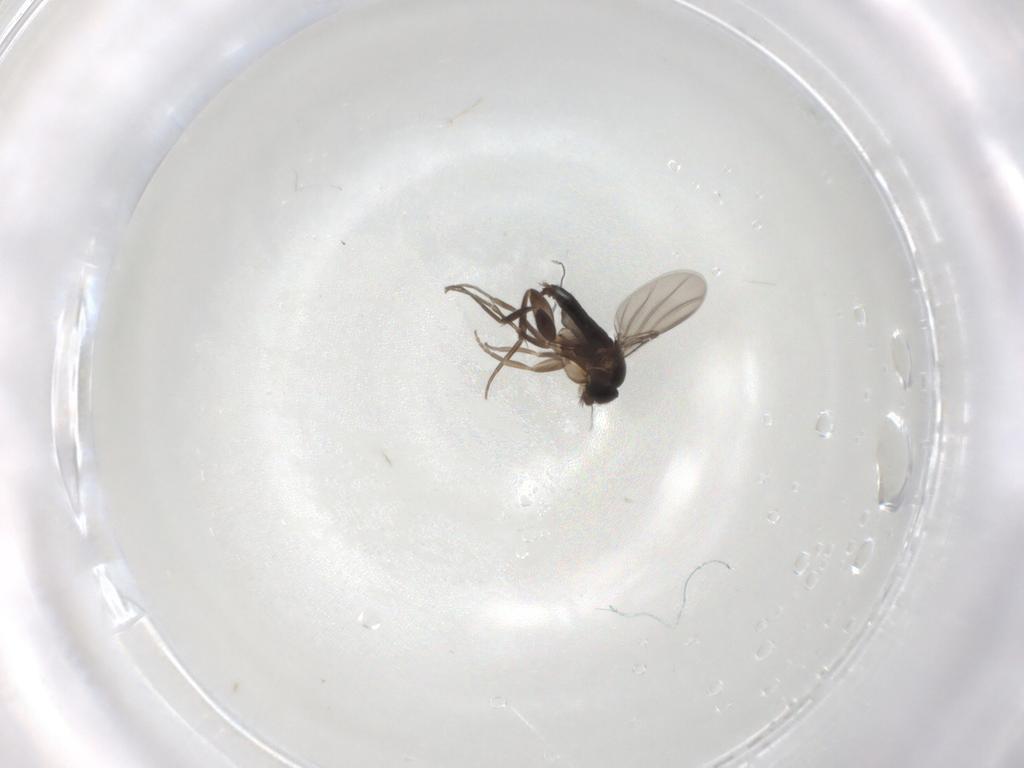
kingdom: Animalia
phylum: Arthropoda
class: Insecta
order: Diptera
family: Phoridae
